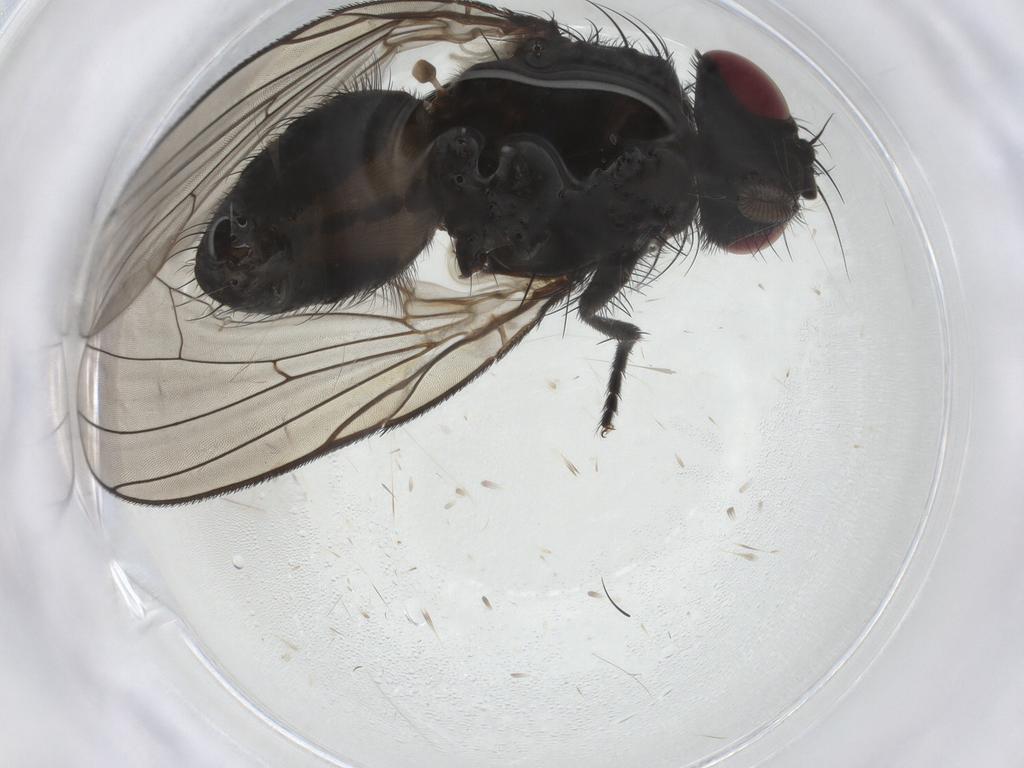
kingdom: Animalia
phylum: Arthropoda
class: Insecta
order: Diptera
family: Fannia
